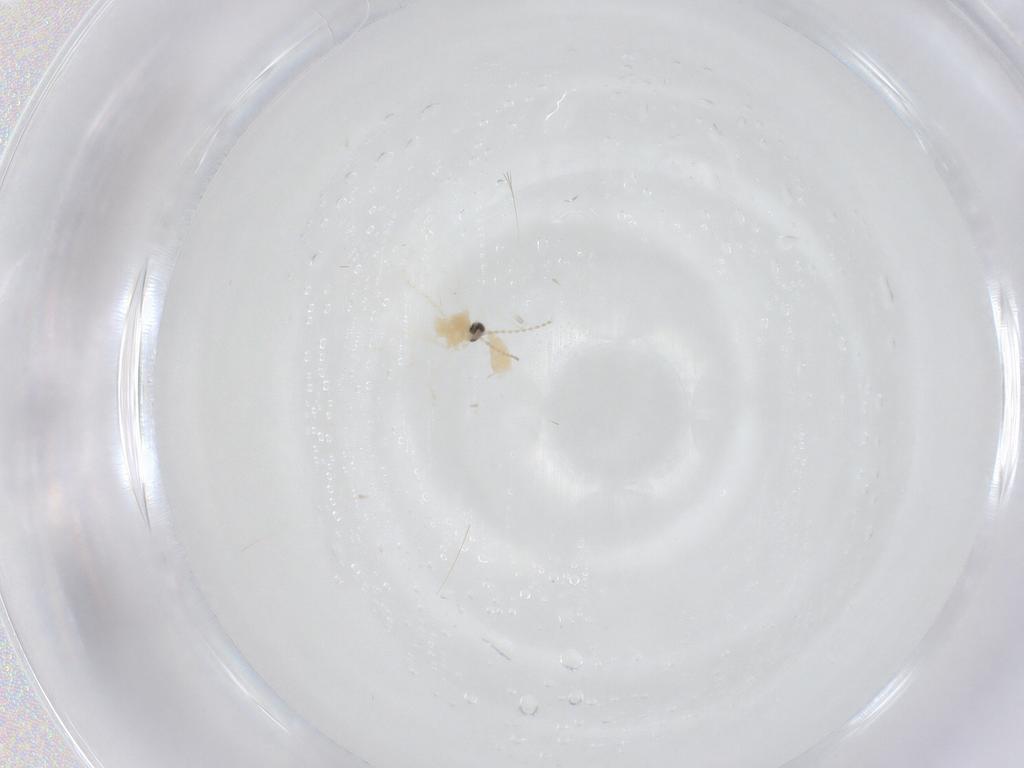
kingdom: Animalia
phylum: Arthropoda
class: Insecta
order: Diptera
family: Cecidomyiidae
